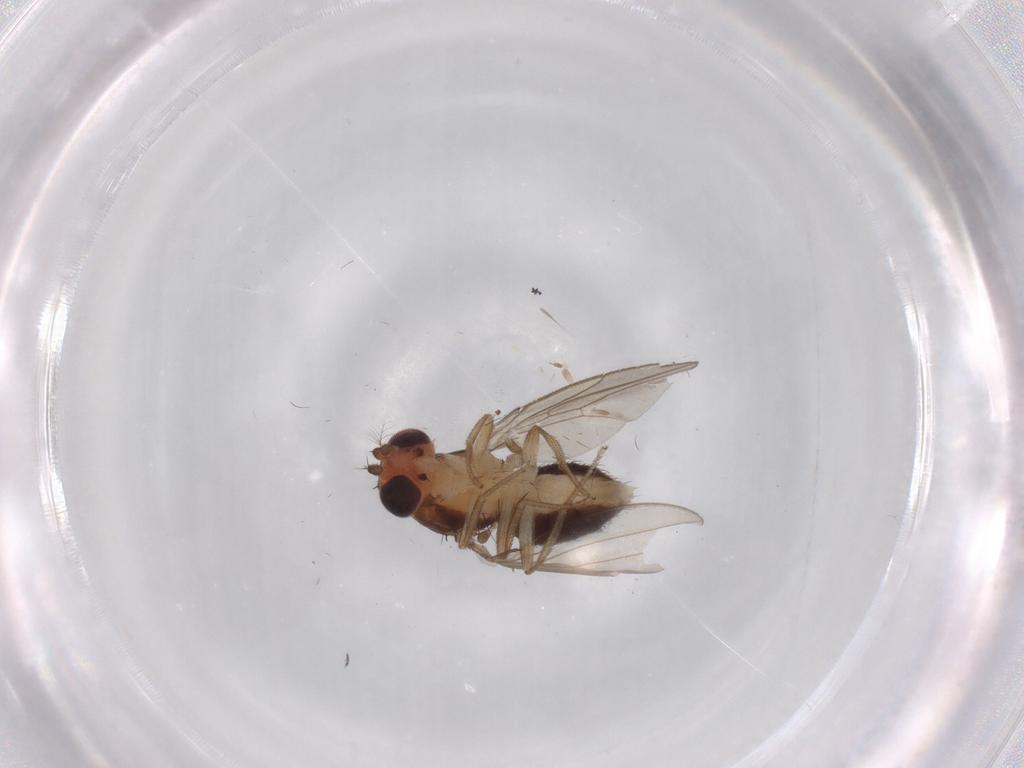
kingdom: Animalia
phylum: Arthropoda
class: Insecta
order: Diptera
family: Drosophilidae
